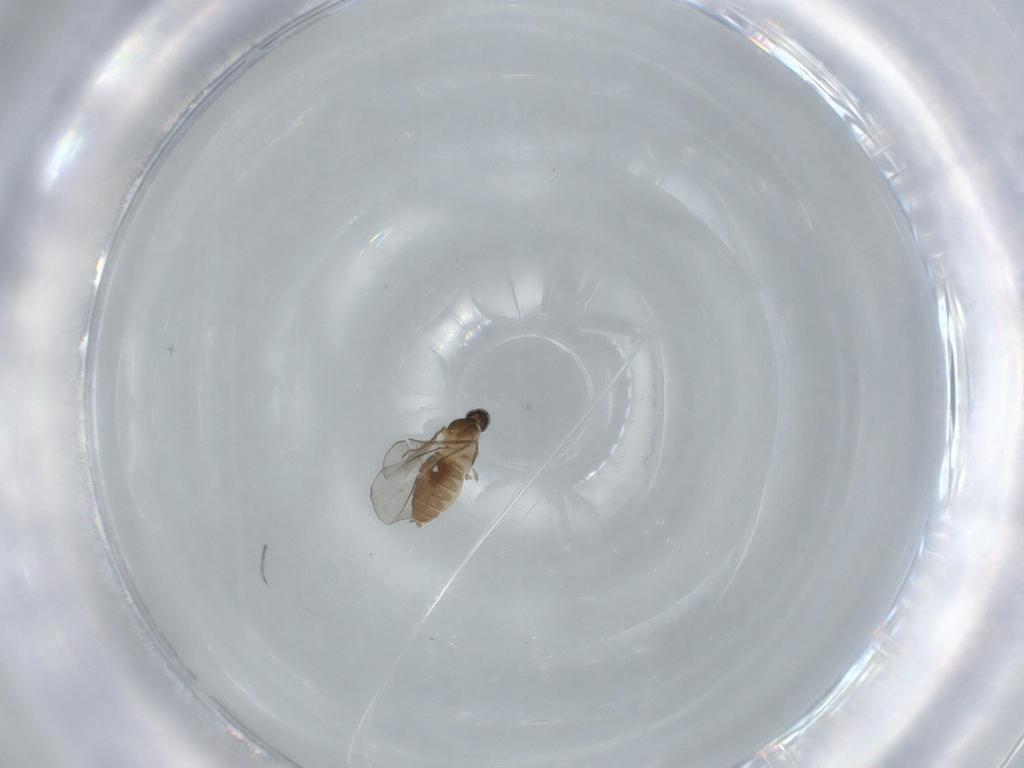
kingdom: Animalia
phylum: Arthropoda
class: Insecta
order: Diptera
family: Cecidomyiidae
